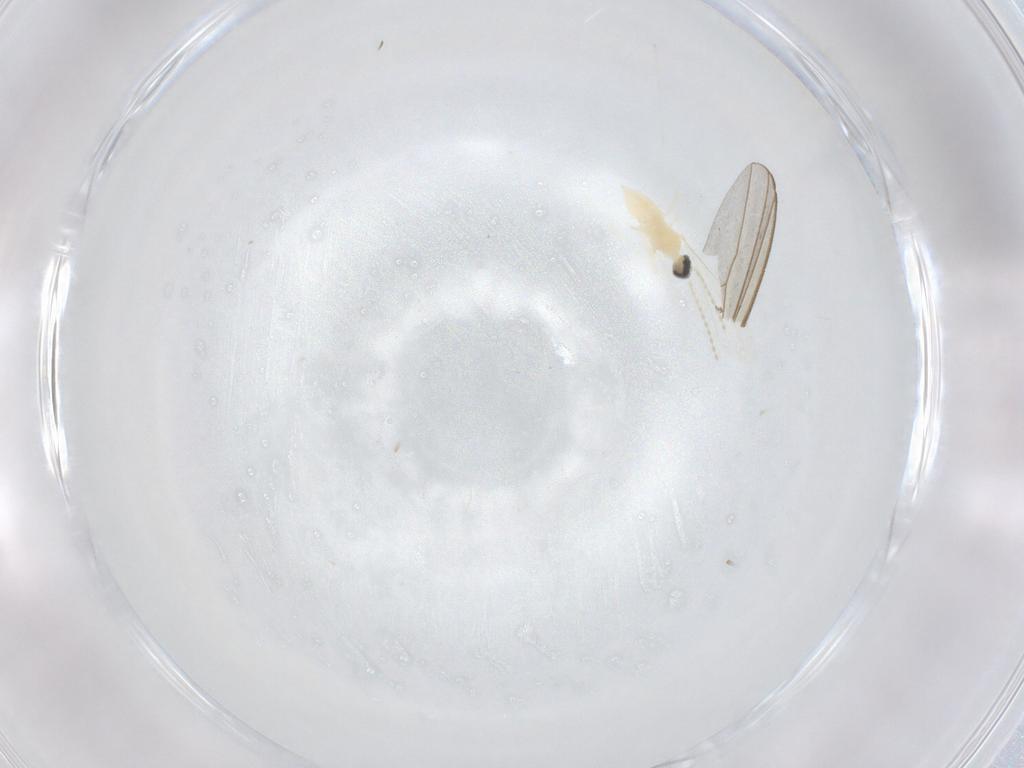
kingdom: Animalia
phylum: Arthropoda
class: Insecta
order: Diptera
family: Cecidomyiidae
